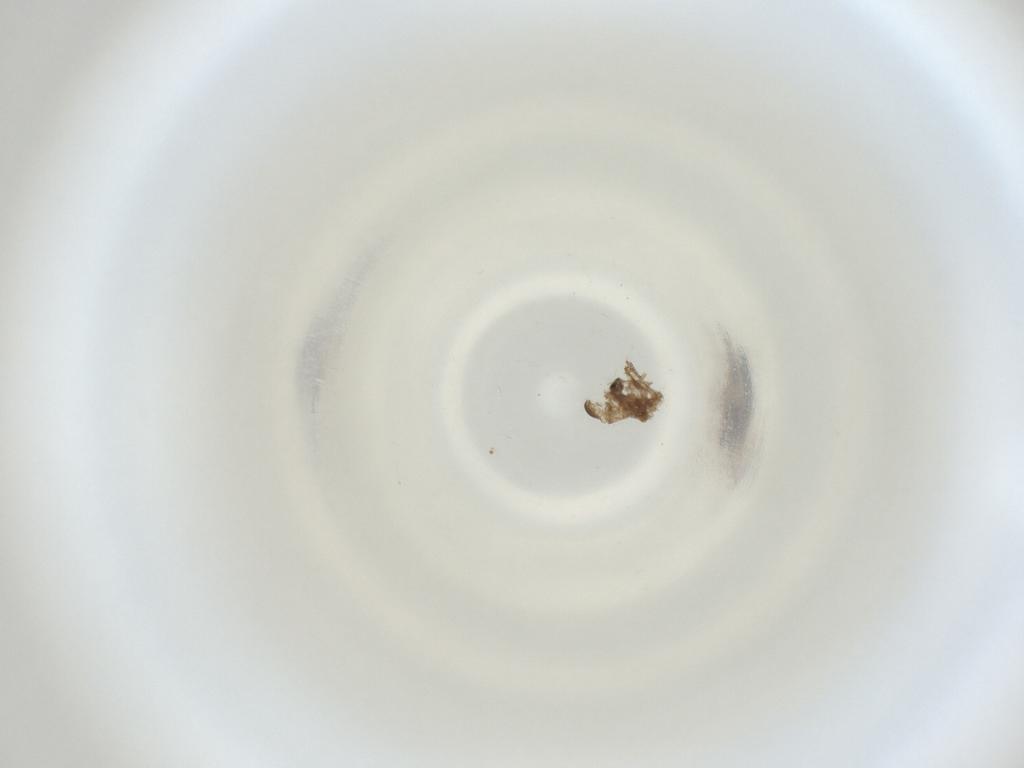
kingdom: Animalia
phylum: Arthropoda
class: Insecta
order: Diptera
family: Cecidomyiidae
